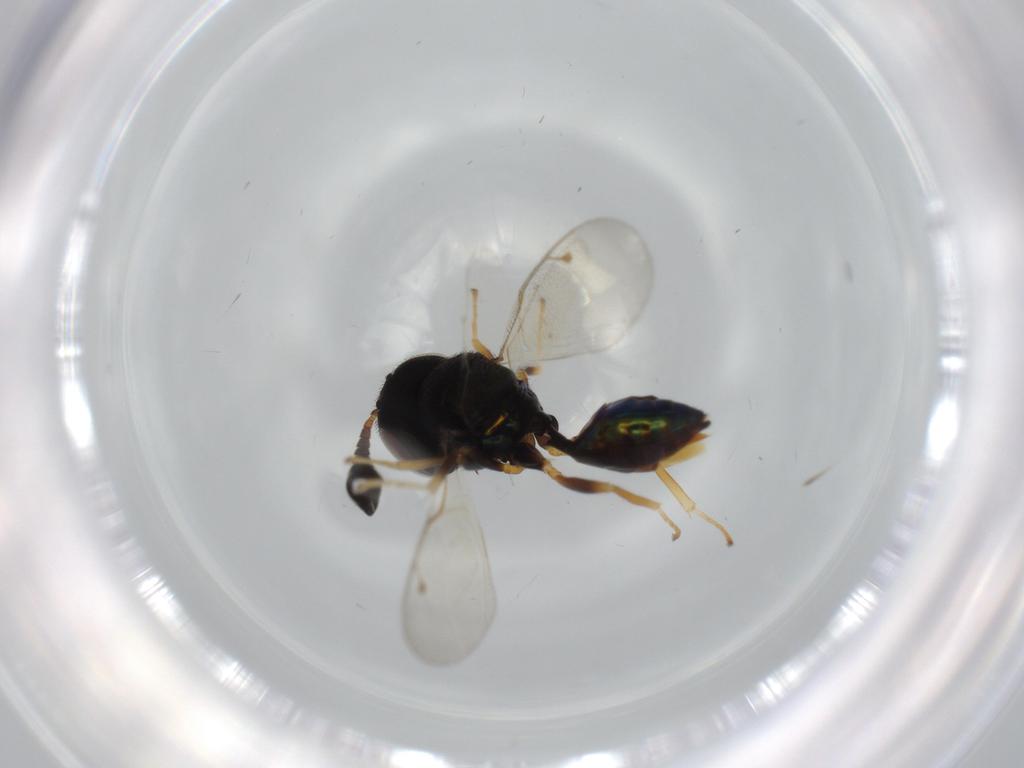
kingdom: Animalia
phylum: Arthropoda
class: Insecta
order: Hymenoptera
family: Agaonidae
